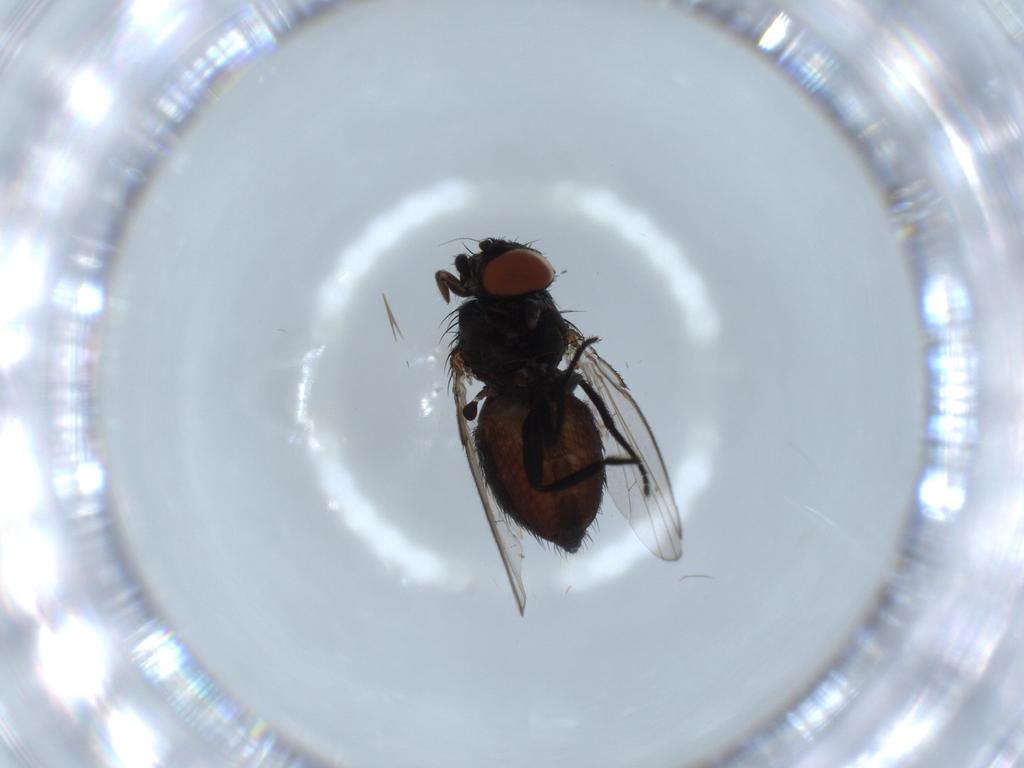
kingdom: Animalia
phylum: Arthropoda
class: Insecta
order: Diptera
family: Milichiidae
